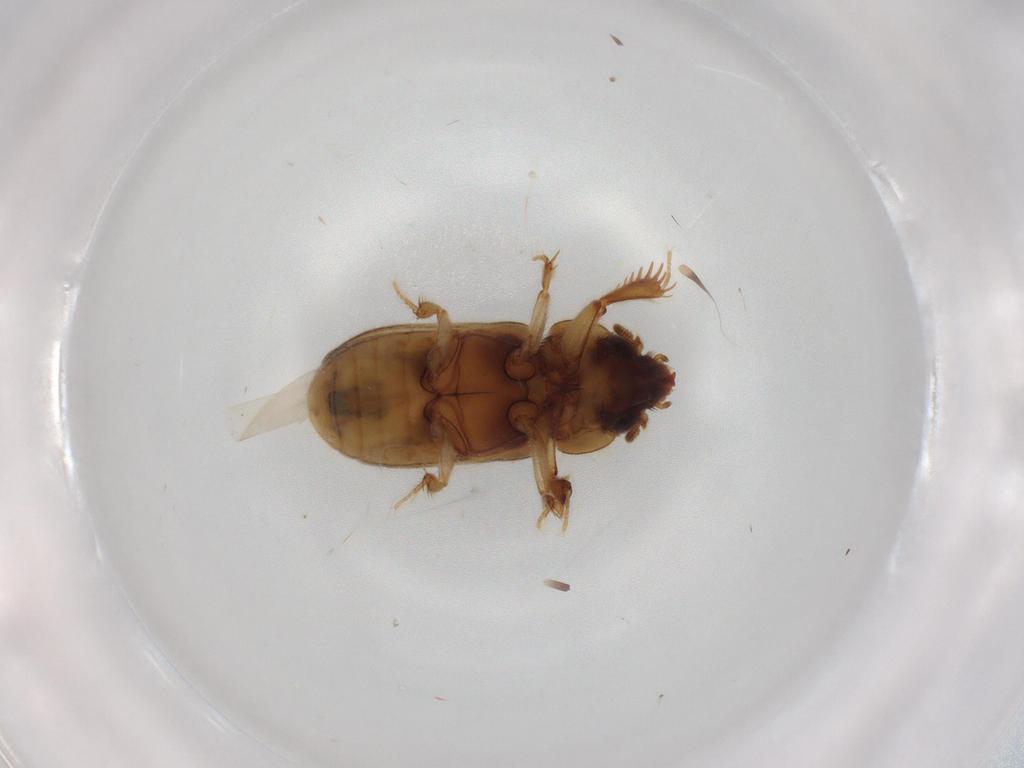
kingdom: Animalia
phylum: Arthropoda
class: Insecta
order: Coleoptera
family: Heteroceridae
